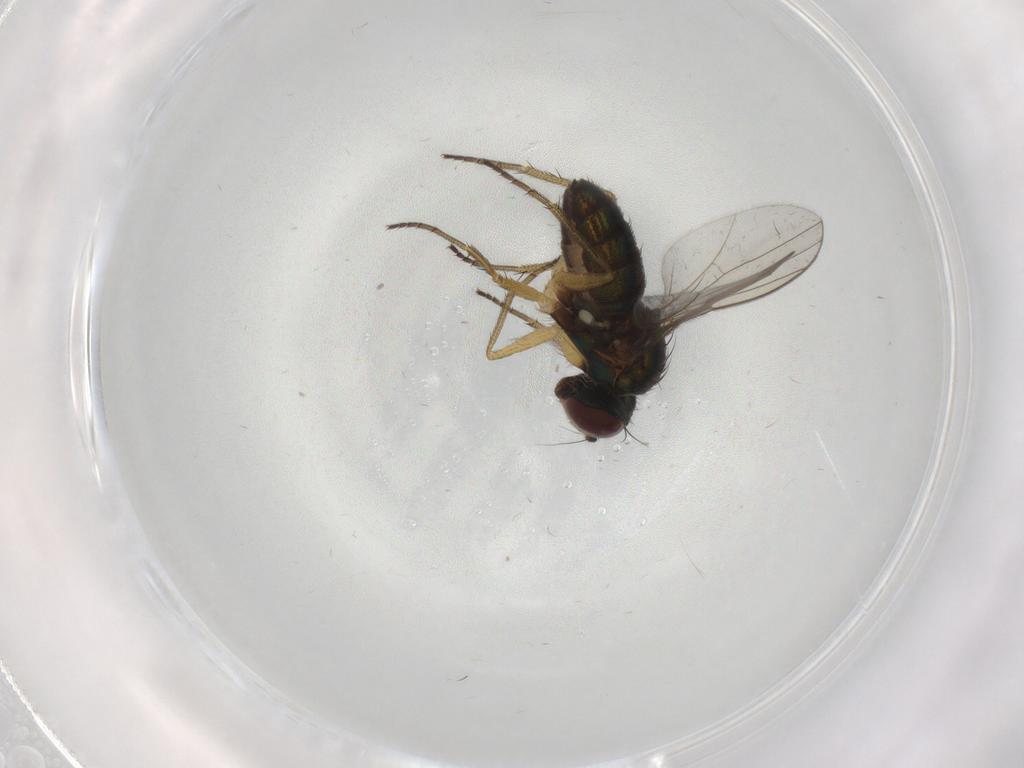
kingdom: Animalia
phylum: Arthropoda
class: Insecta
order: Diptera
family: Dolichopodidae
